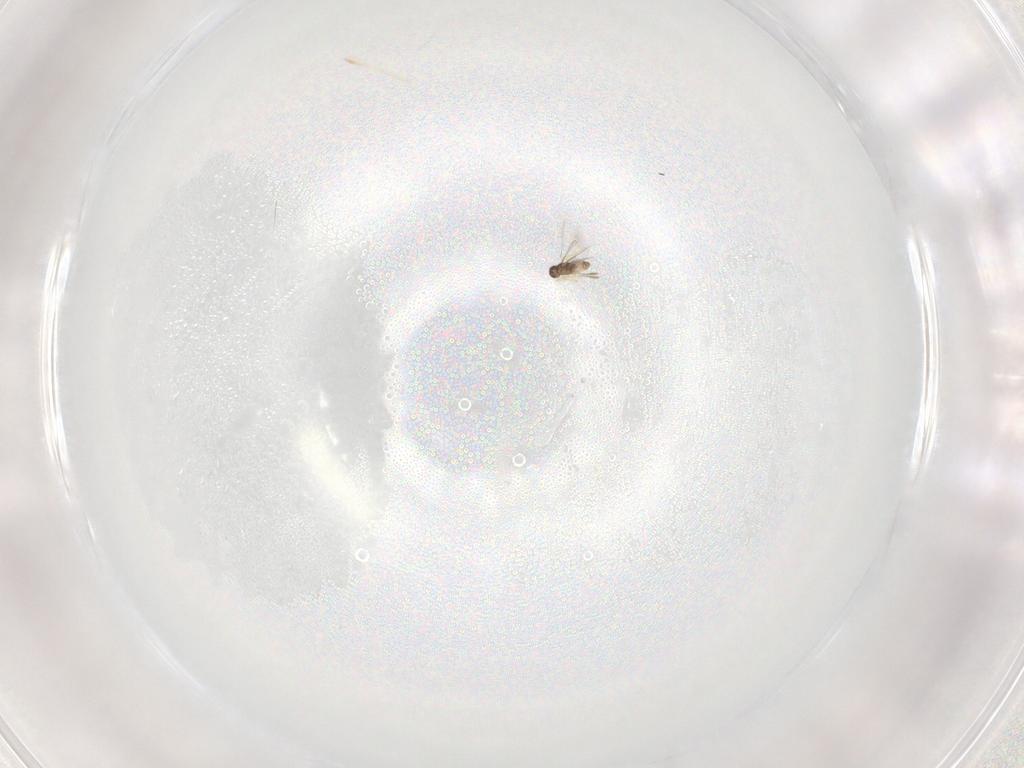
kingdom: Animalia
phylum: Arthropoda
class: Insecta
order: Hymenoptera
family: Mymaridae
